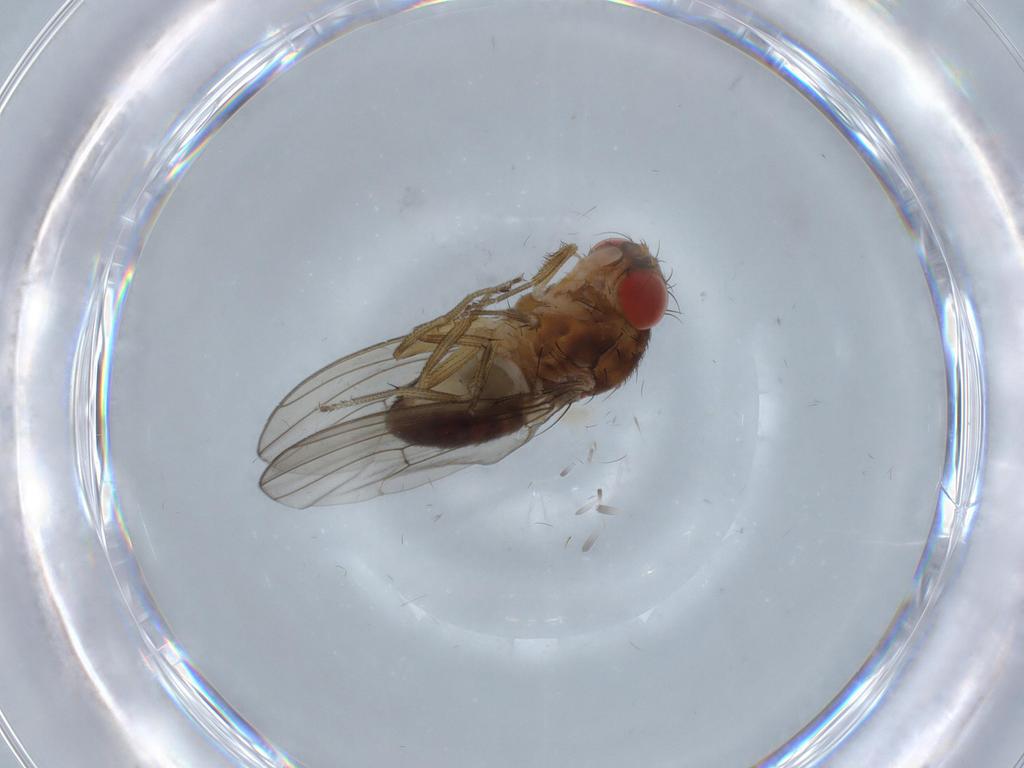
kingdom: Animalia
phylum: Arthropoda
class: Insecta
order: Diptera
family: Drosophilidae
